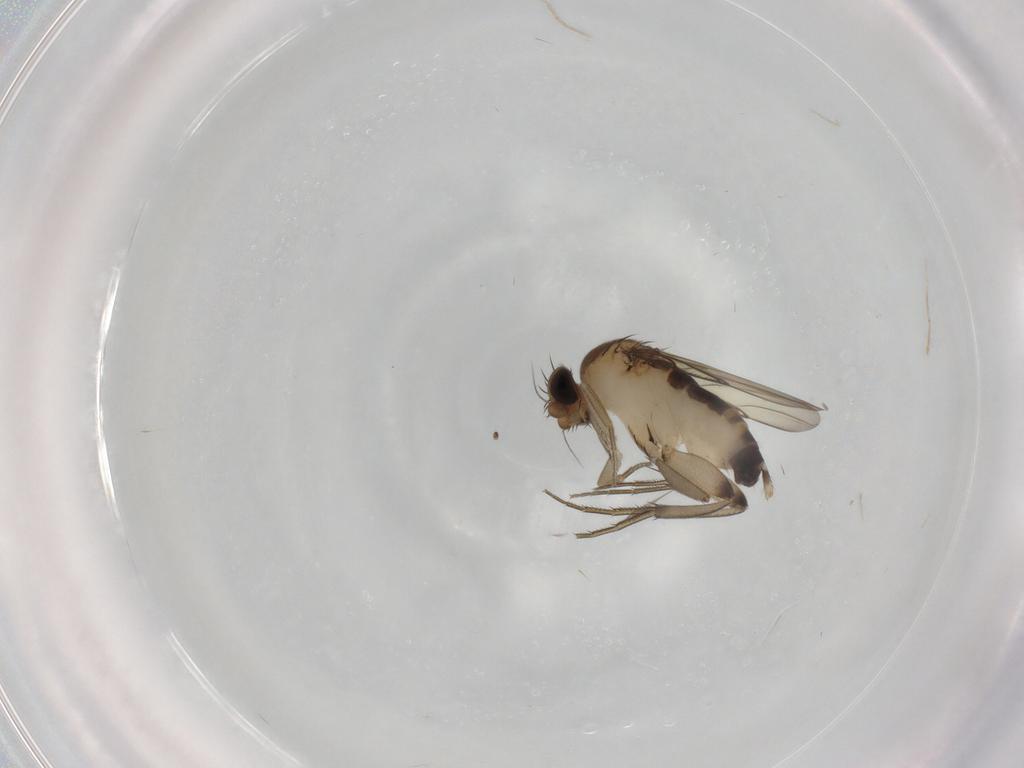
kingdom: Animalia
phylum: Arthropoda
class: Insecta
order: Diptera
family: Phoridae
